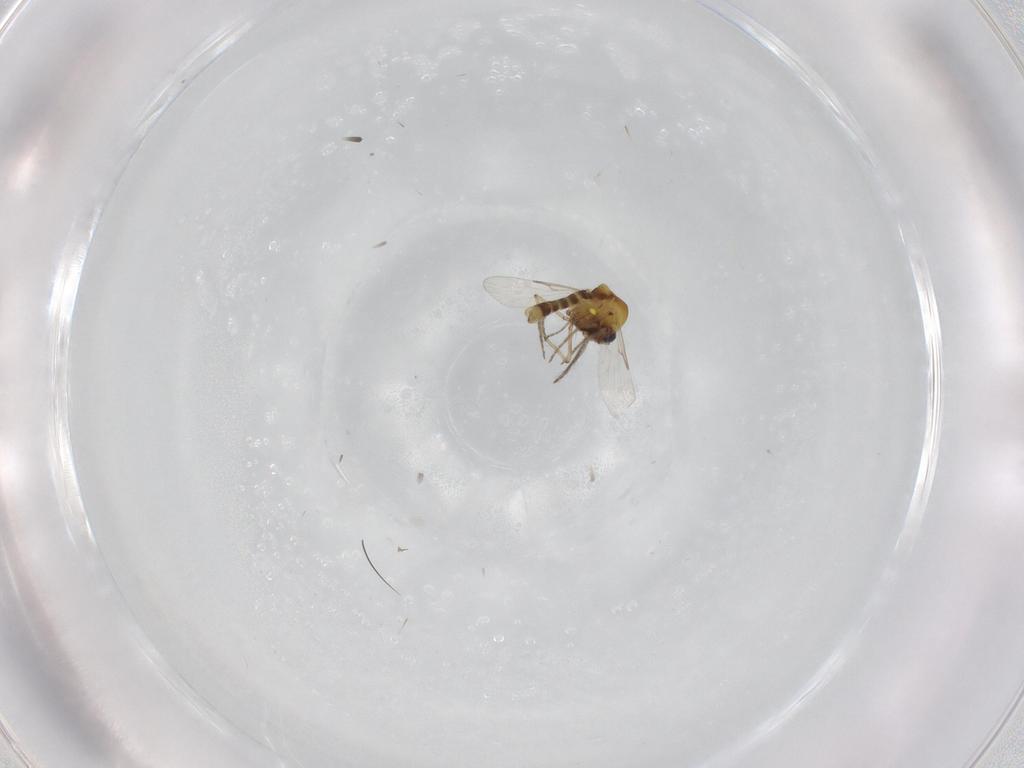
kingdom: Animalia
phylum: Arthropoda
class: Insecta
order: Diptera
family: Ceratopogonidae
